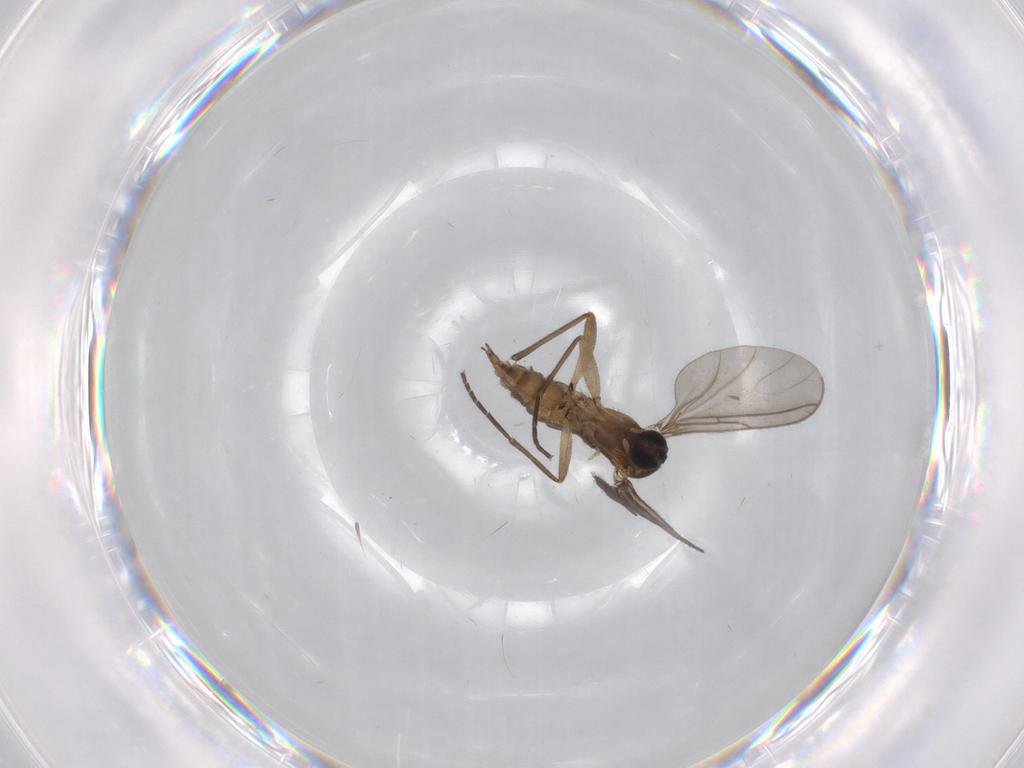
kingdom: Animalia
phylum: Arthropoda
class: Insecta
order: Diptera
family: Sciaridae
